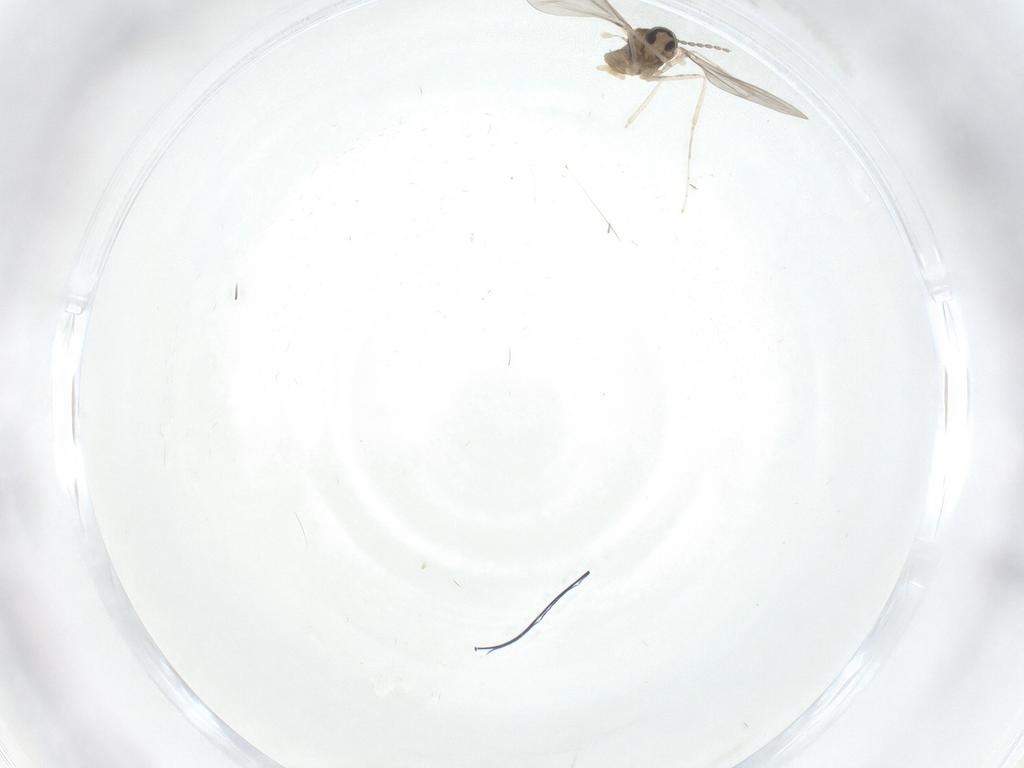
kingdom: Animalia
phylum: Arthropoda
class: Insecta
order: Diptera
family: Cecidomyiidae
